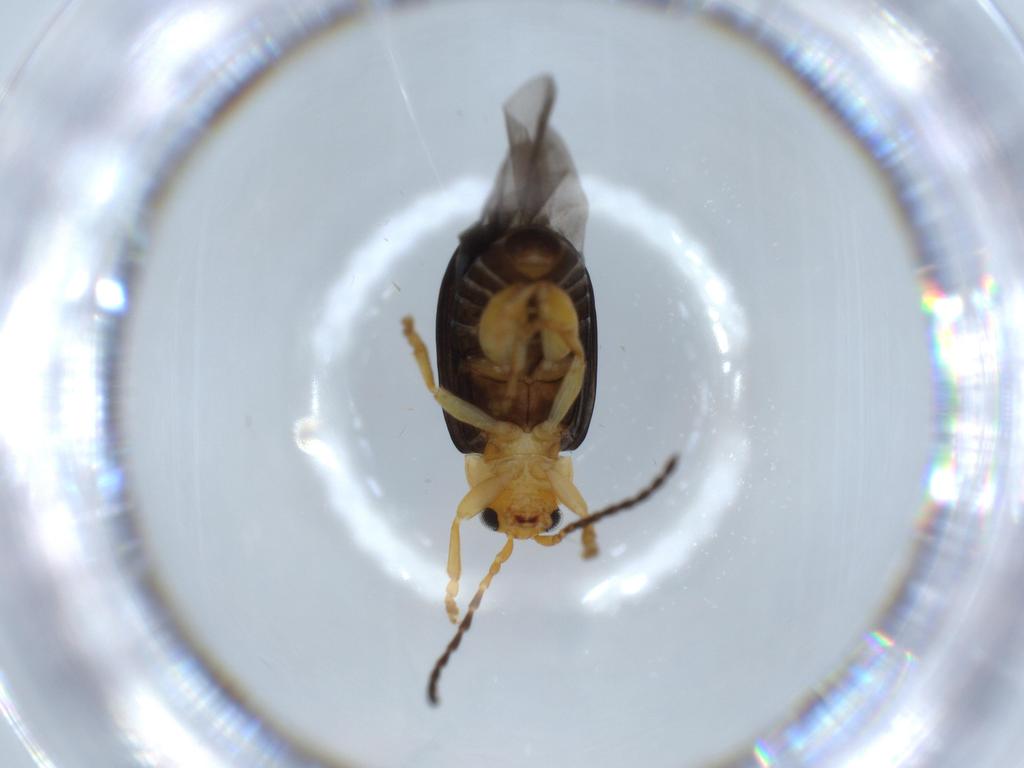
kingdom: Animalia
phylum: Arthropoda
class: Insecta
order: Coleoptera
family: Chrysomelidae
